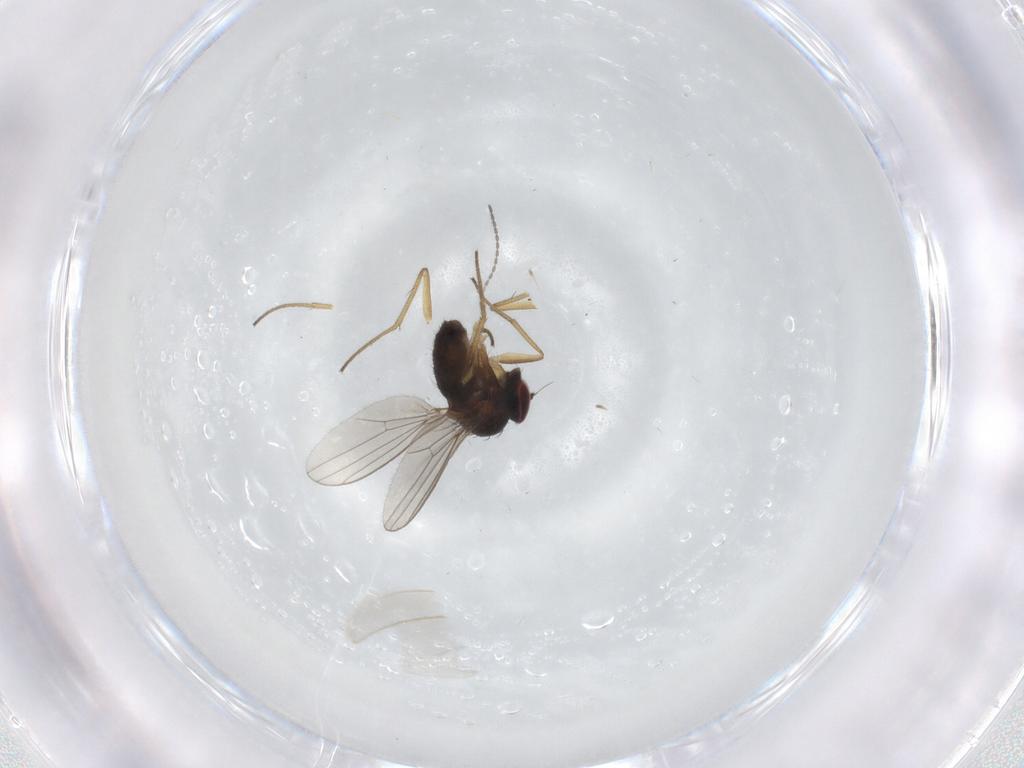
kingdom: Animalia
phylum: Arthropoda
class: Insecta
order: Diptera
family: Dolichopodidae
